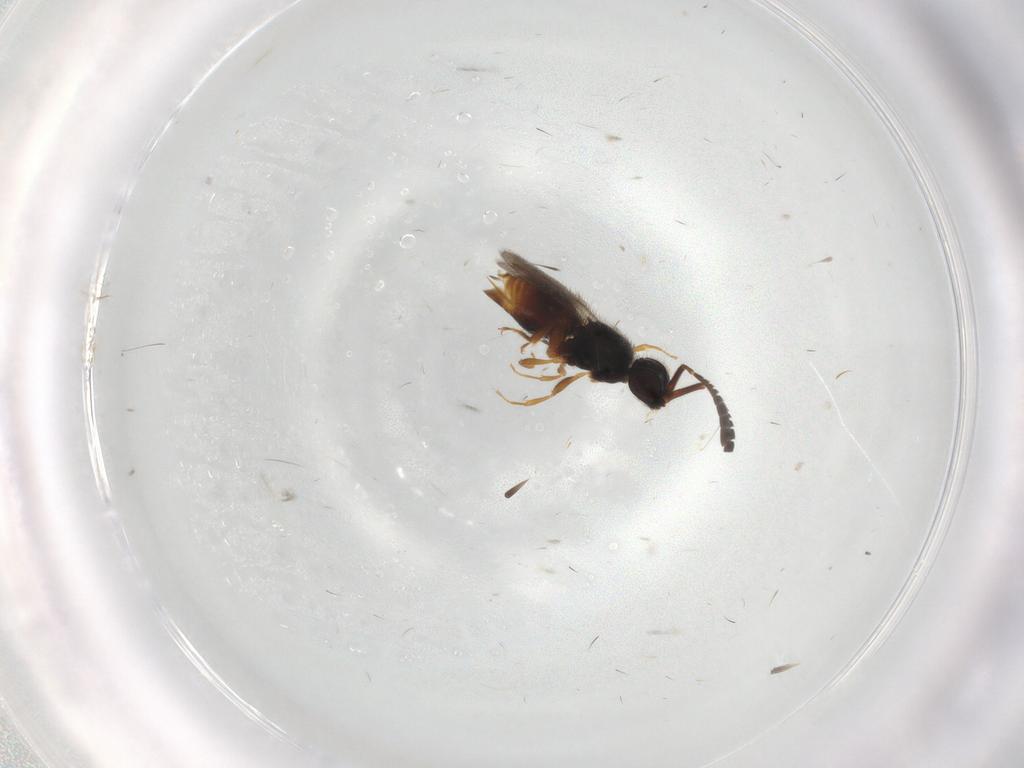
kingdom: Animalia
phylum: Arthropoda
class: Insecta
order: Hymenoptera
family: Ceraphronidae
